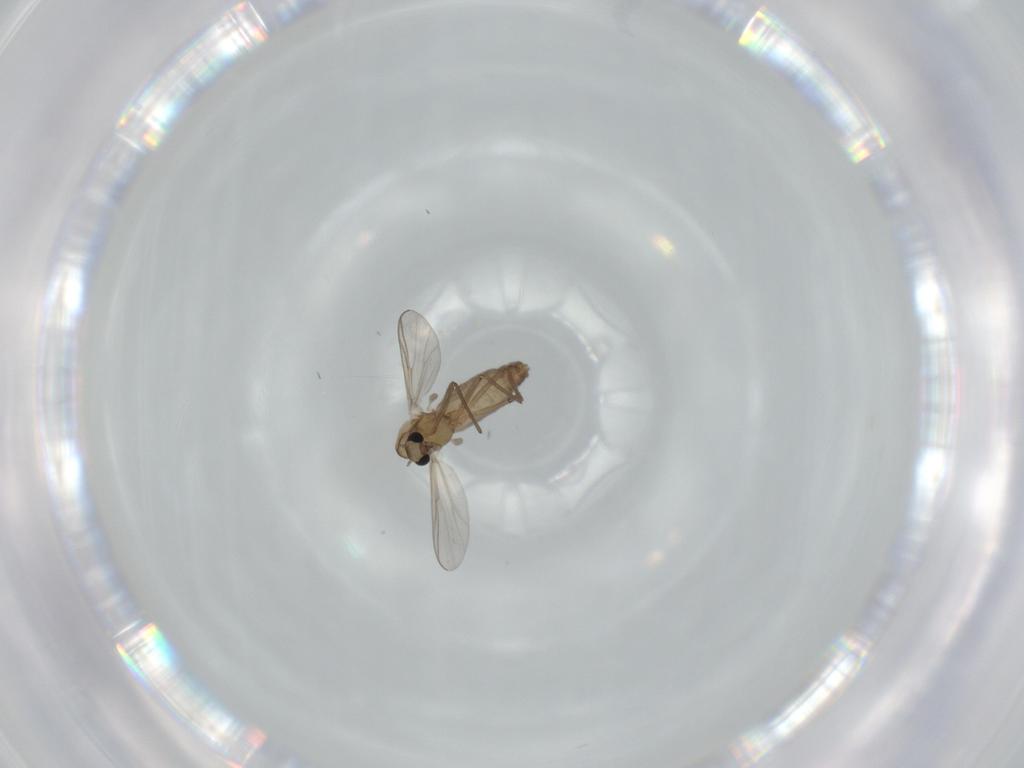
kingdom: Animalia
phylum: Arthropoda
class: Insecta
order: Diptera
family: Chironomidae
